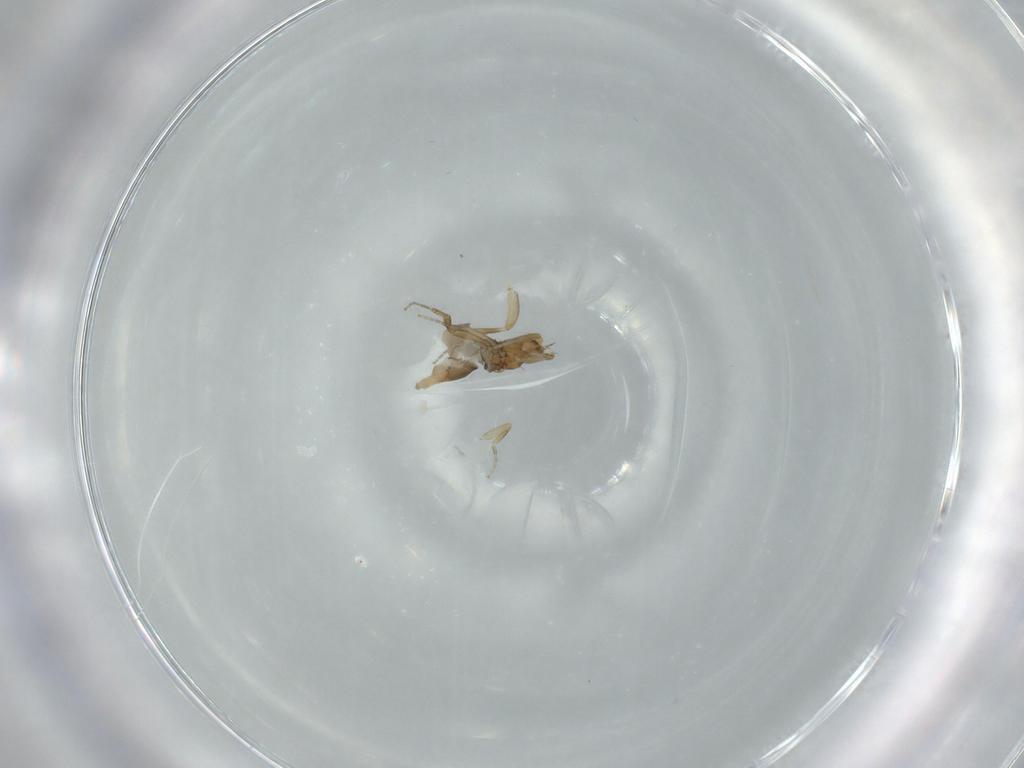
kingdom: Animalia
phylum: Arthropoda
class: Insecta
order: Diptera
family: Phoridae
